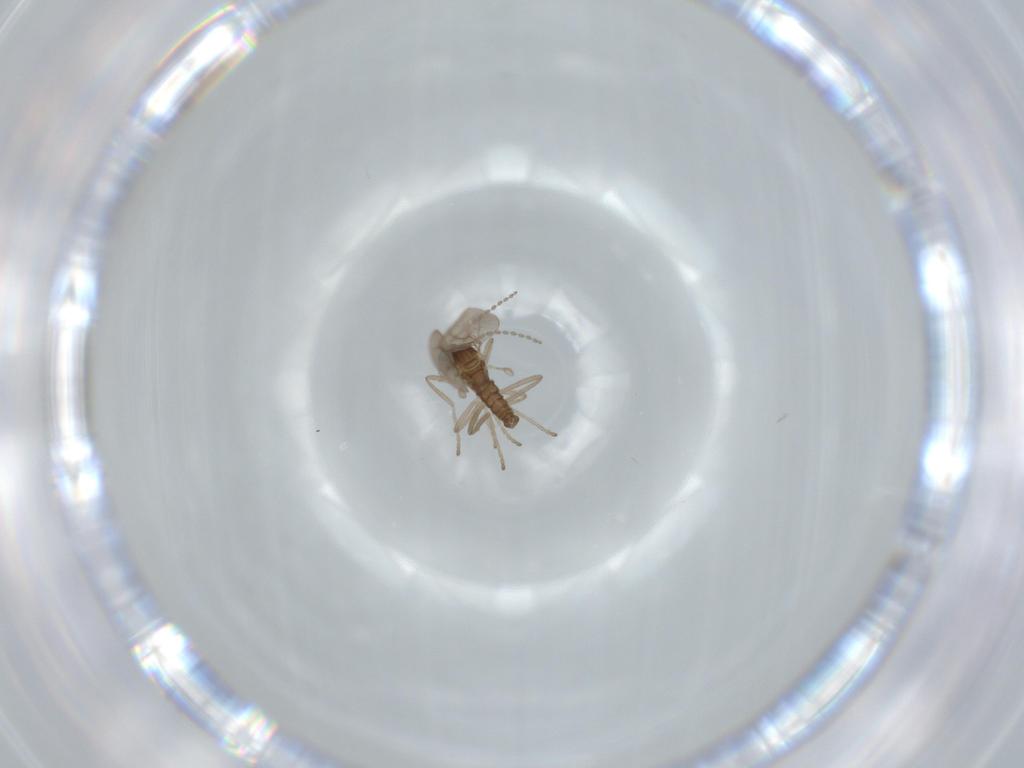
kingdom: Animalia
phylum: Arthropoda
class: Insecta
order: Diptera
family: Cecidomyiidae
